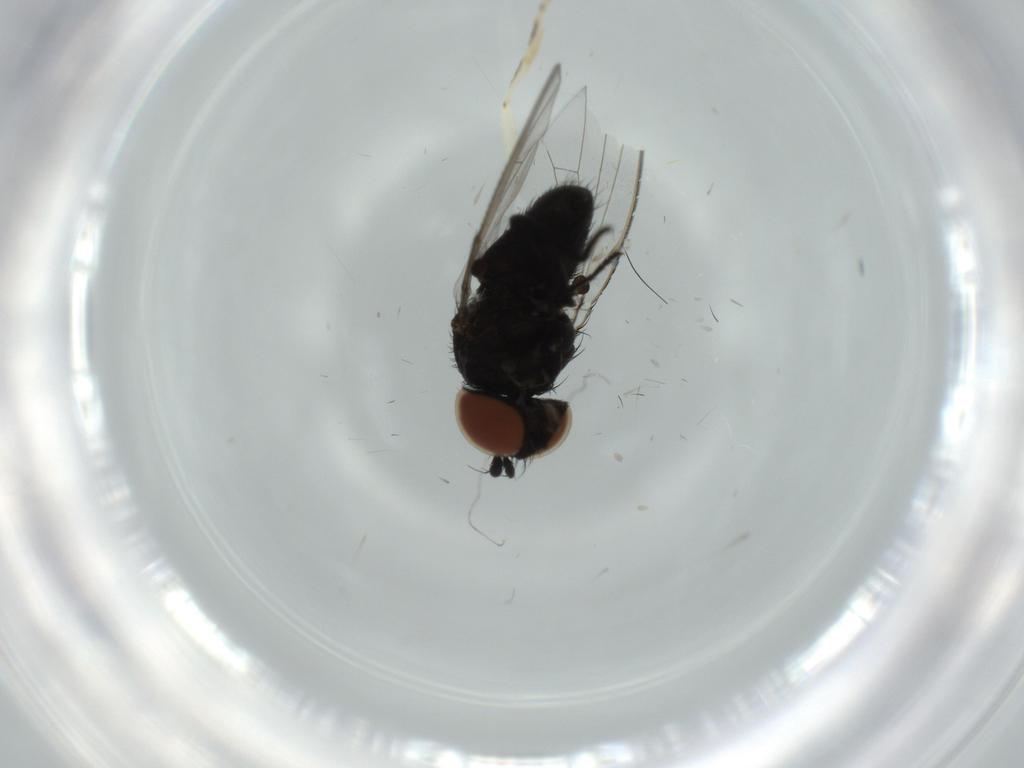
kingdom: Animalia
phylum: Arthropoda
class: Insecta
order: Diptera
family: Milichiidae
